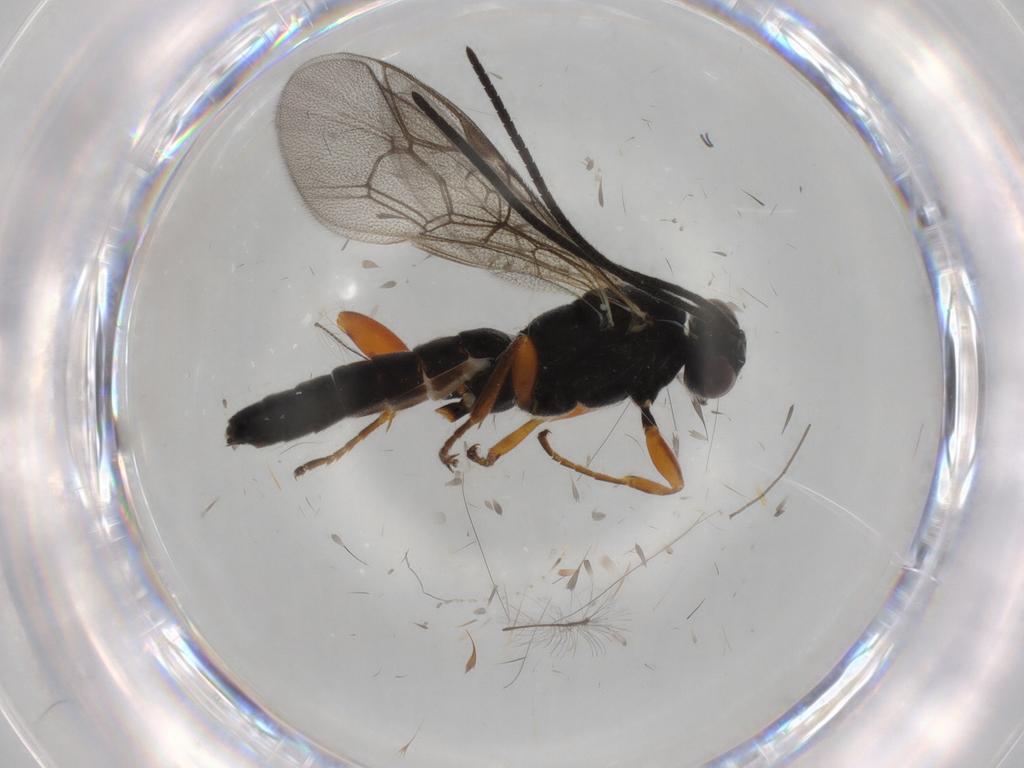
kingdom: Animalia
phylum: Arthropoda
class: Insecta
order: Hymenoptera
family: Ichneumonidae
